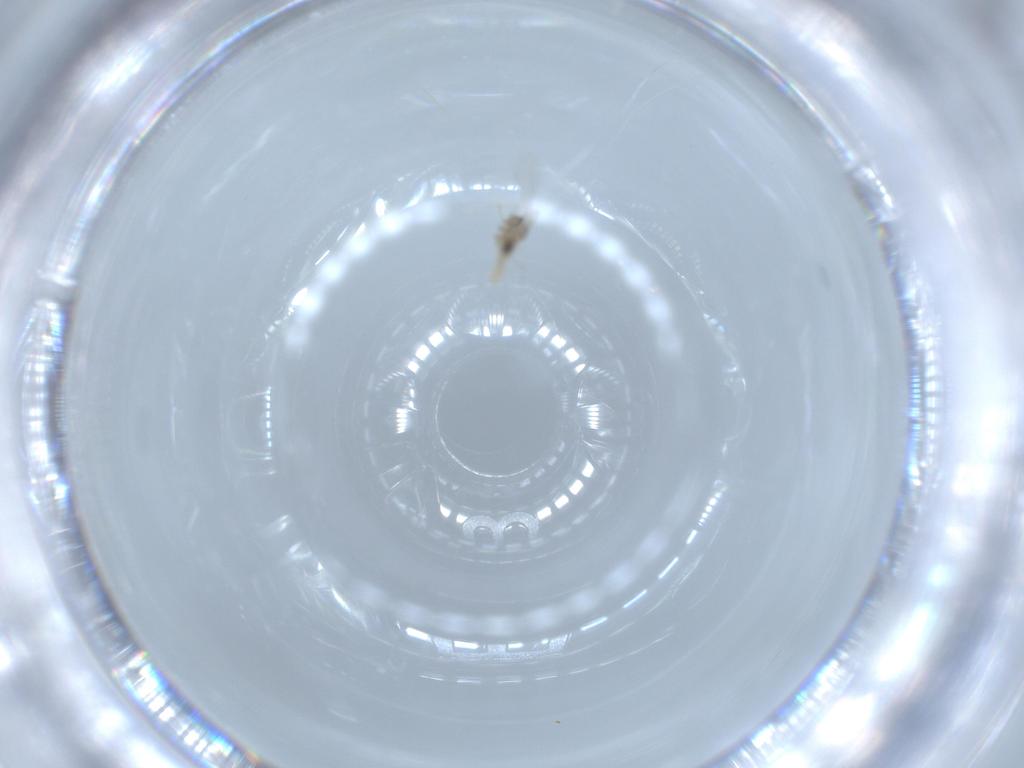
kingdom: Animalia
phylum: Arthropoda
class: Insecta
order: Diptera
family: Cecidomyiidae
